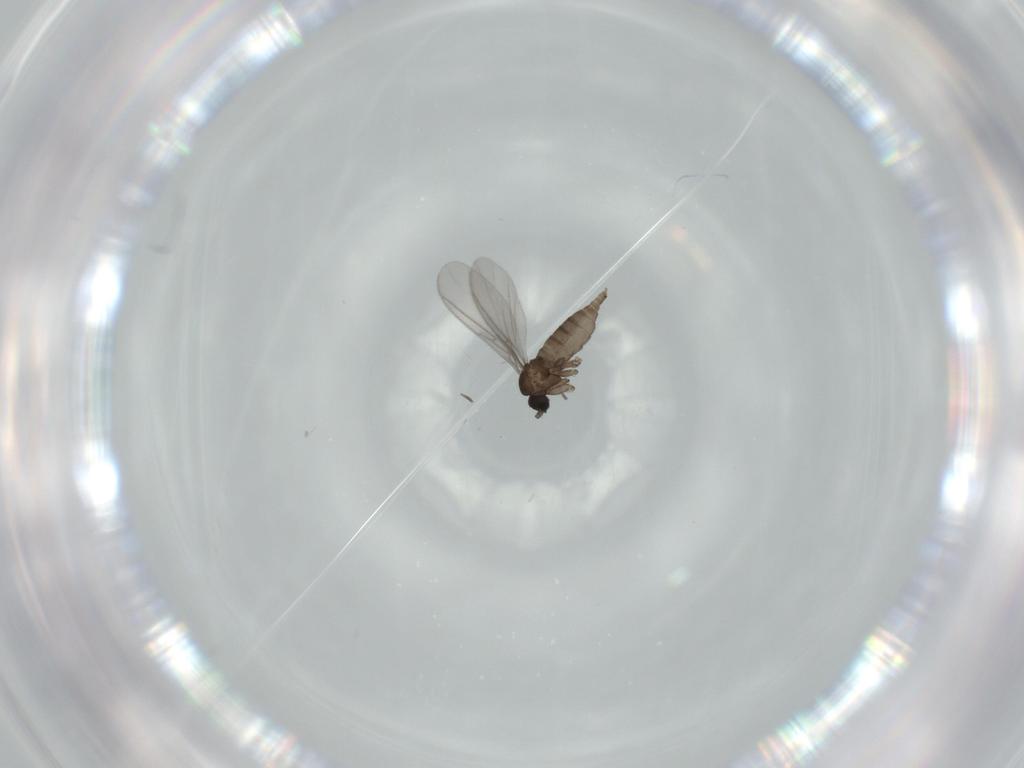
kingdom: Animalia
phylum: Arthropoda
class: Insecta
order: Diptera
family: Sciaridae
